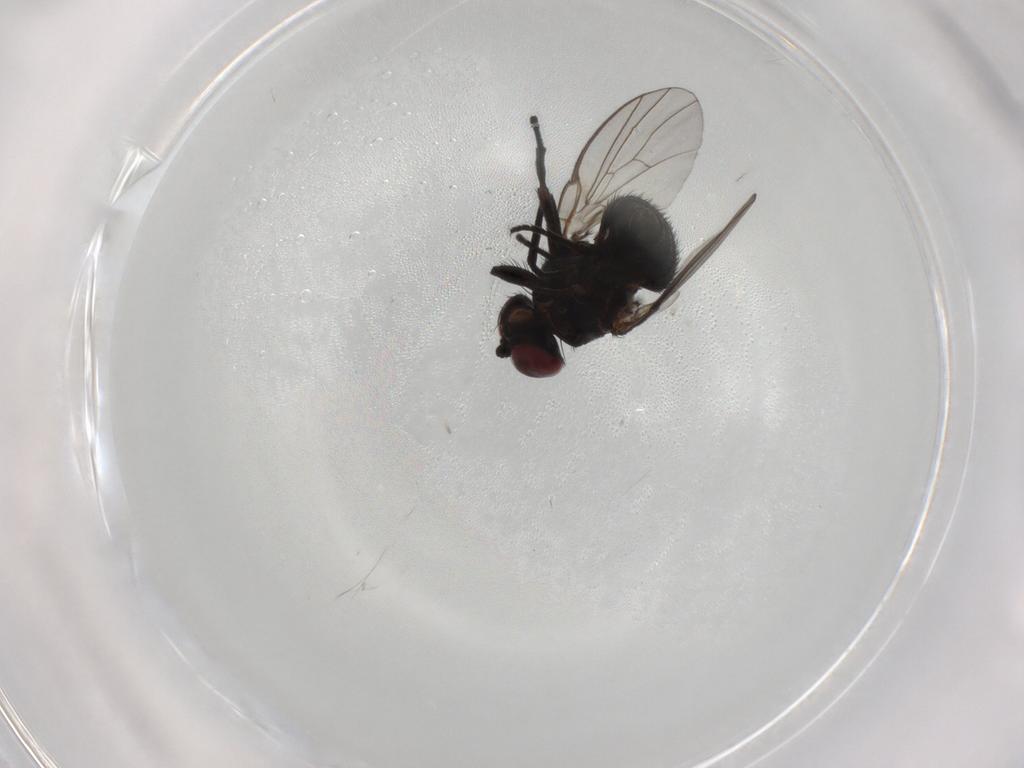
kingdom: Animalia
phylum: Arthropoda
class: Insecta
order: Diptera
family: Agromyzidae
